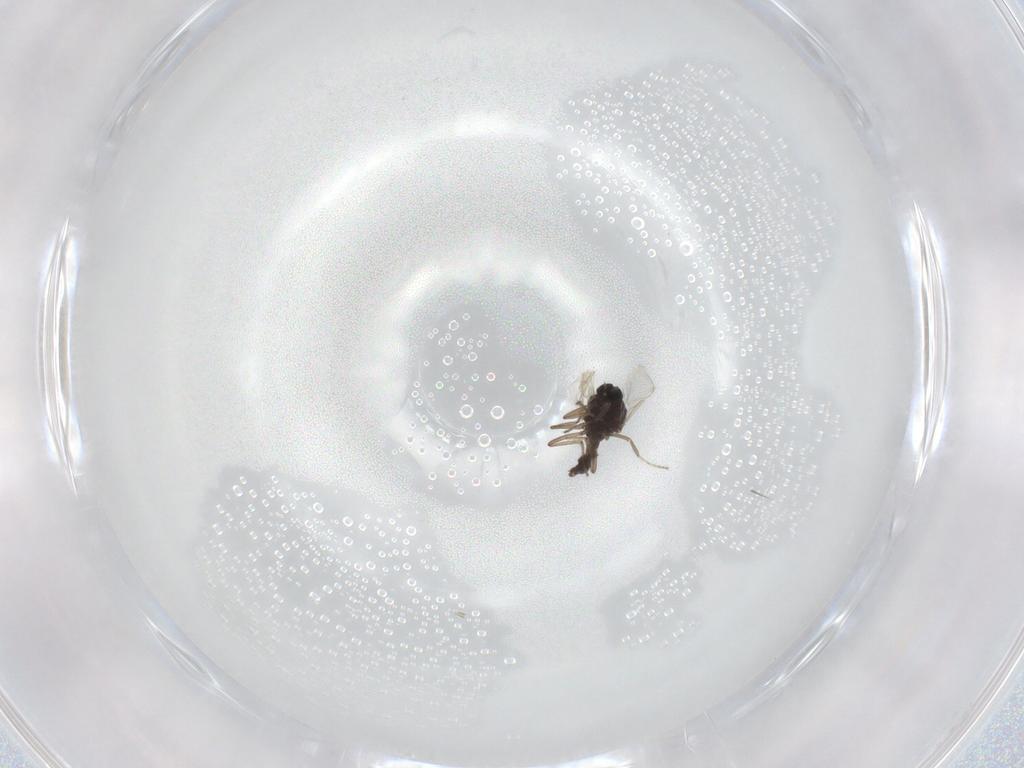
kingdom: Animalia
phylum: Arthropoda
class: Insecta
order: Diptera
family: Ceratopogonidae
